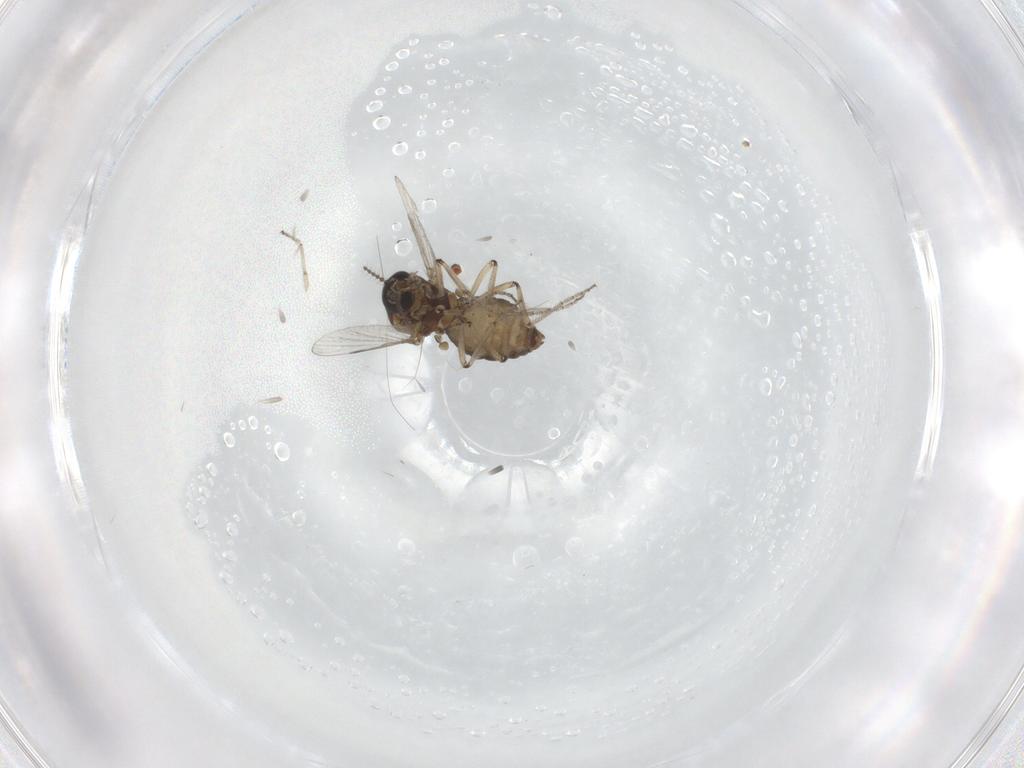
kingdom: Animalia
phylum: Arthropoda
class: Insecta
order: Diptera
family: Ceratopogonidae
